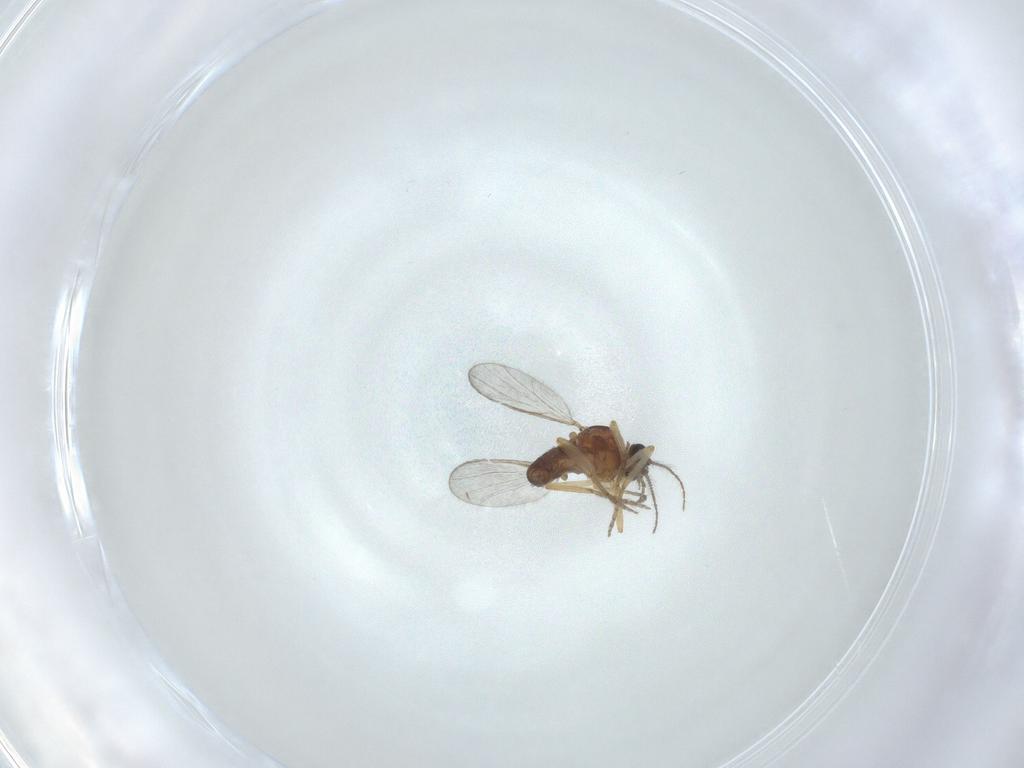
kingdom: Animalia
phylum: Arthropoda
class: Insecta
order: Diptera
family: Ceratopogonidae
